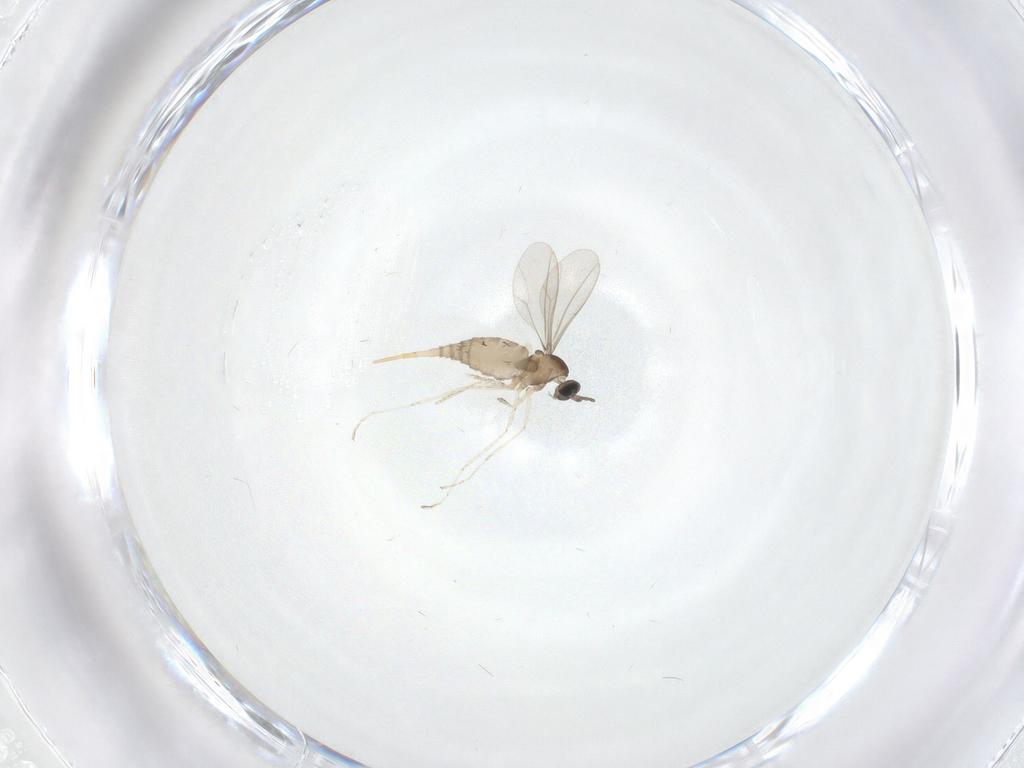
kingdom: Animalia
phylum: Arthropoda
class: Insecta
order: Diptera
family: Cecidomyiidae
